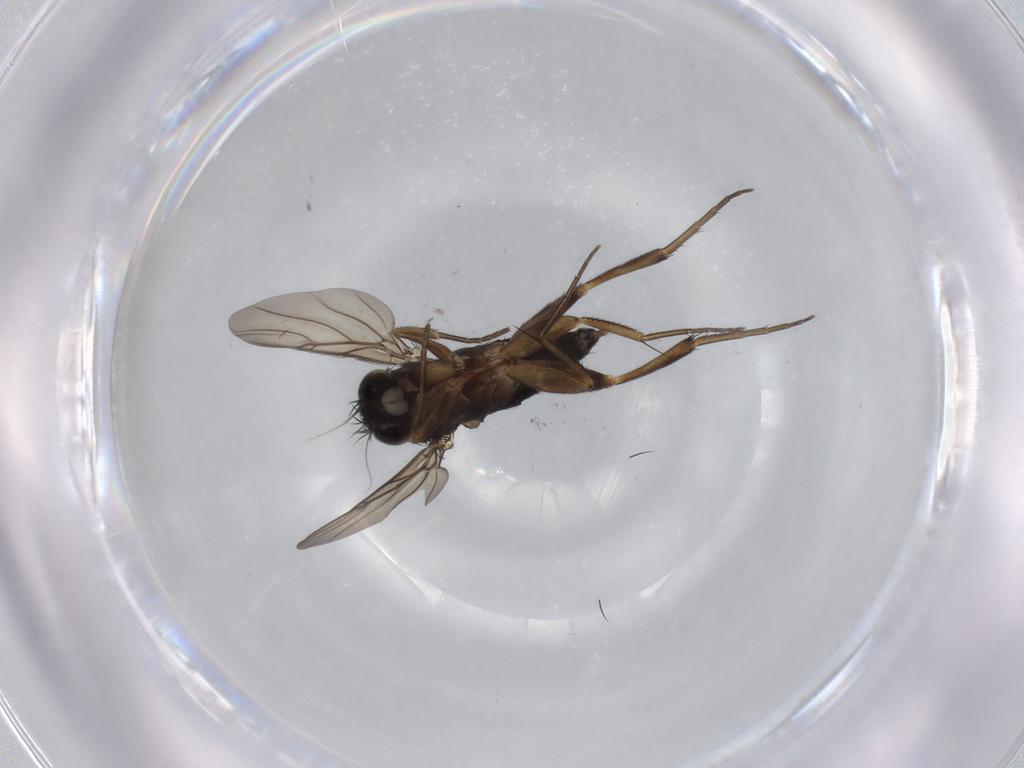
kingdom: Animalia
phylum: Arthropoda
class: Insecta
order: Diptera
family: Phoridae
